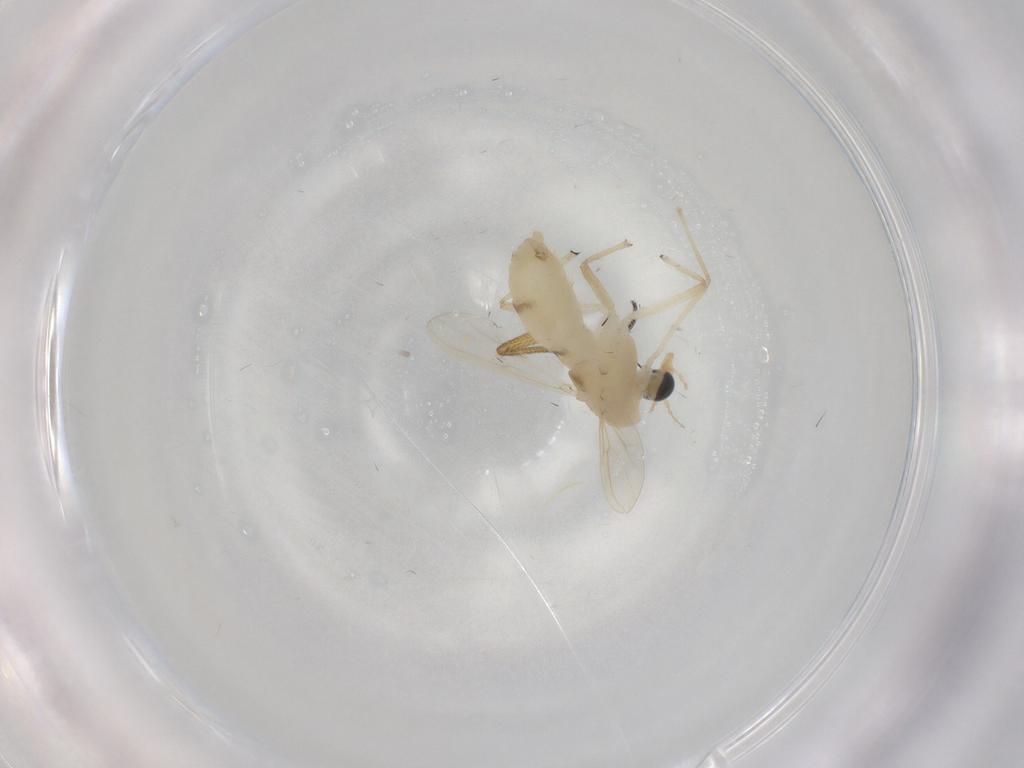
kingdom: Animalia
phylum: Arthropoda
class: Insecta
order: Diptera
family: Chironomidae
